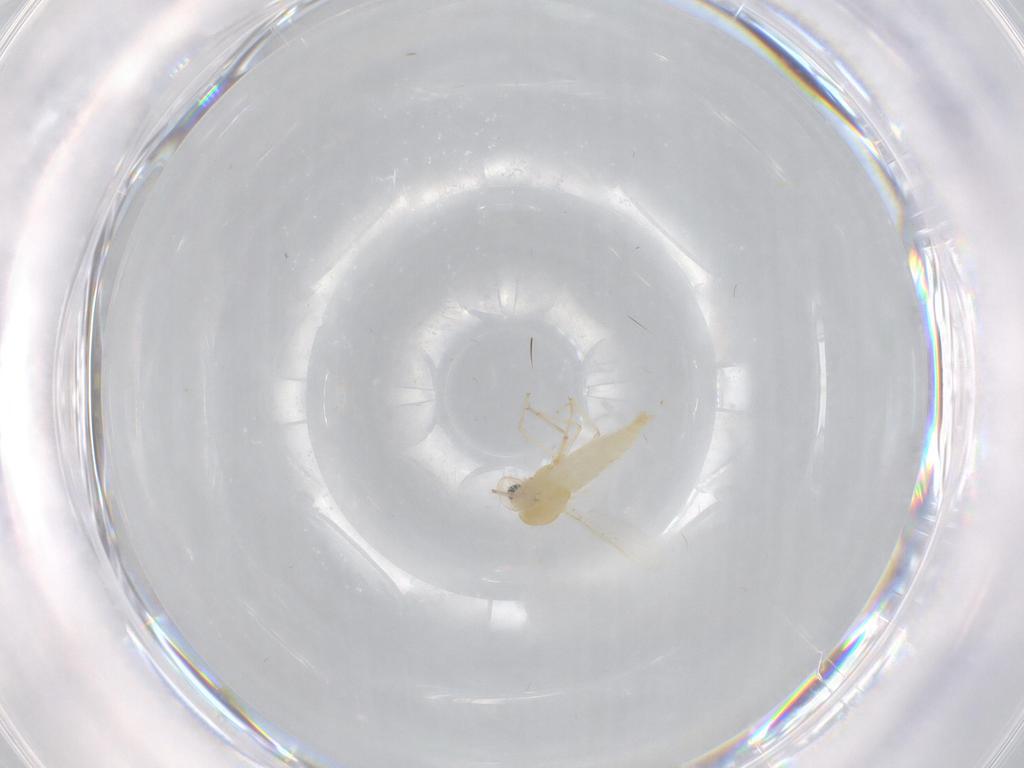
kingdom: Animalia
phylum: Arthropoda
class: Insecta
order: Diptera
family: Chironomidae
